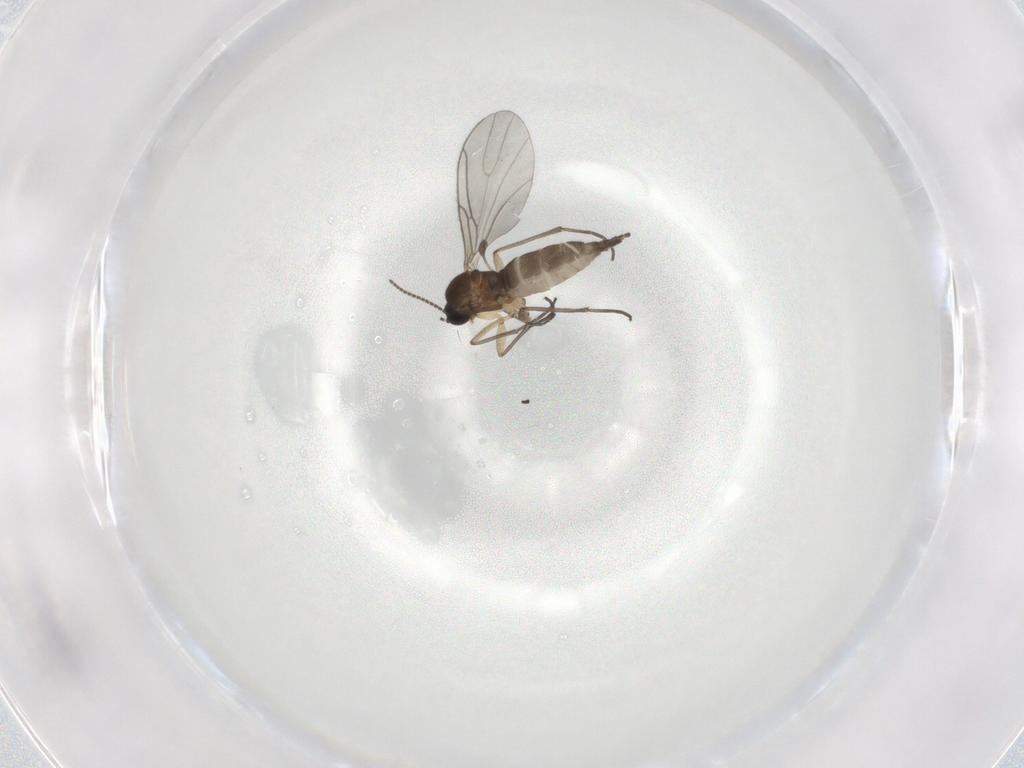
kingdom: Animalia
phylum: Arthropoda
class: Insecta
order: Diptera
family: Sciaridae
